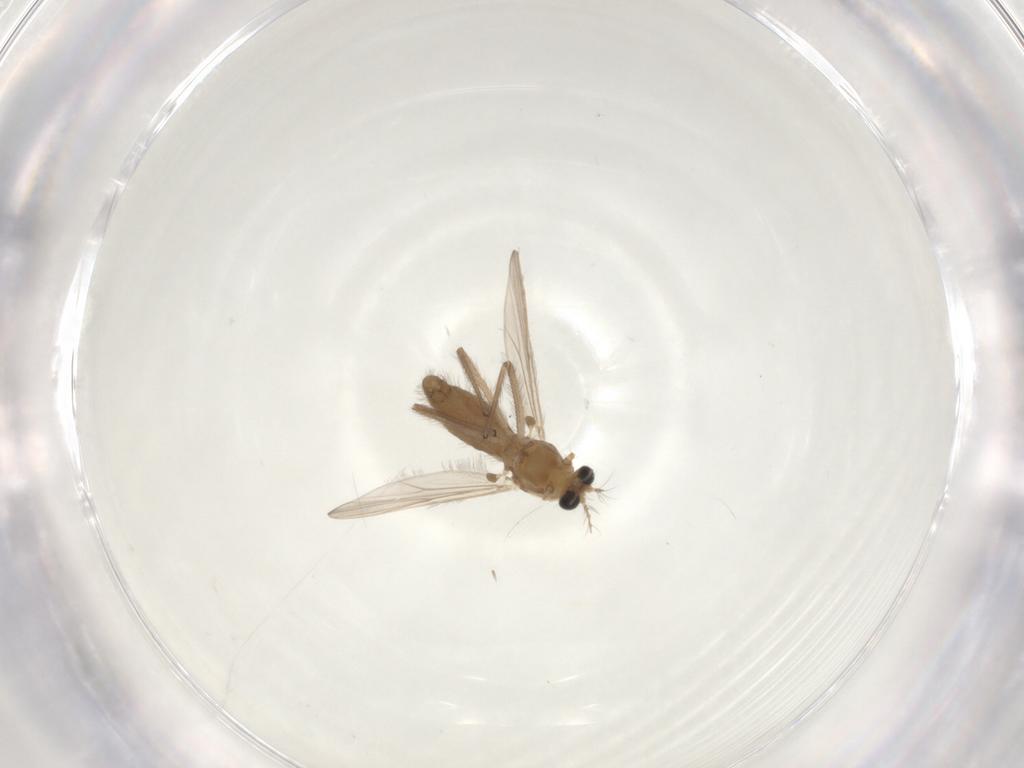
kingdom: Animalia
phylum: Arthropoda
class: Insecta
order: Diptera
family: Chironomidae
